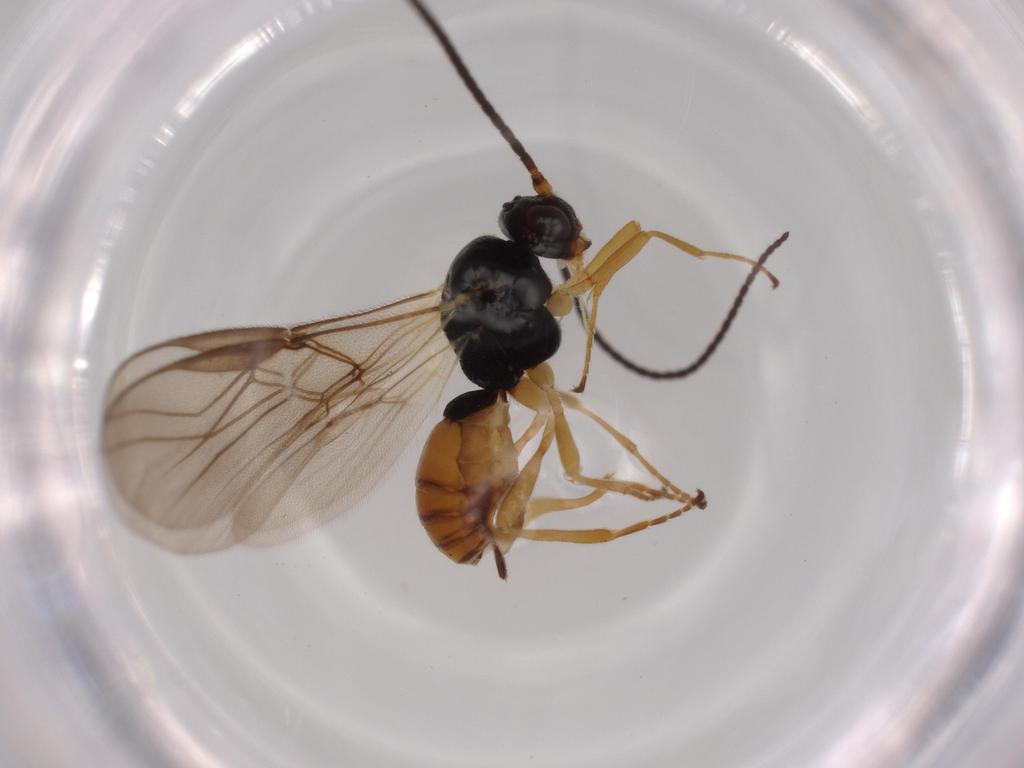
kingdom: Animalia
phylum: Arthropoda
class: Insecta
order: Hymenoptera
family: Braconidae
